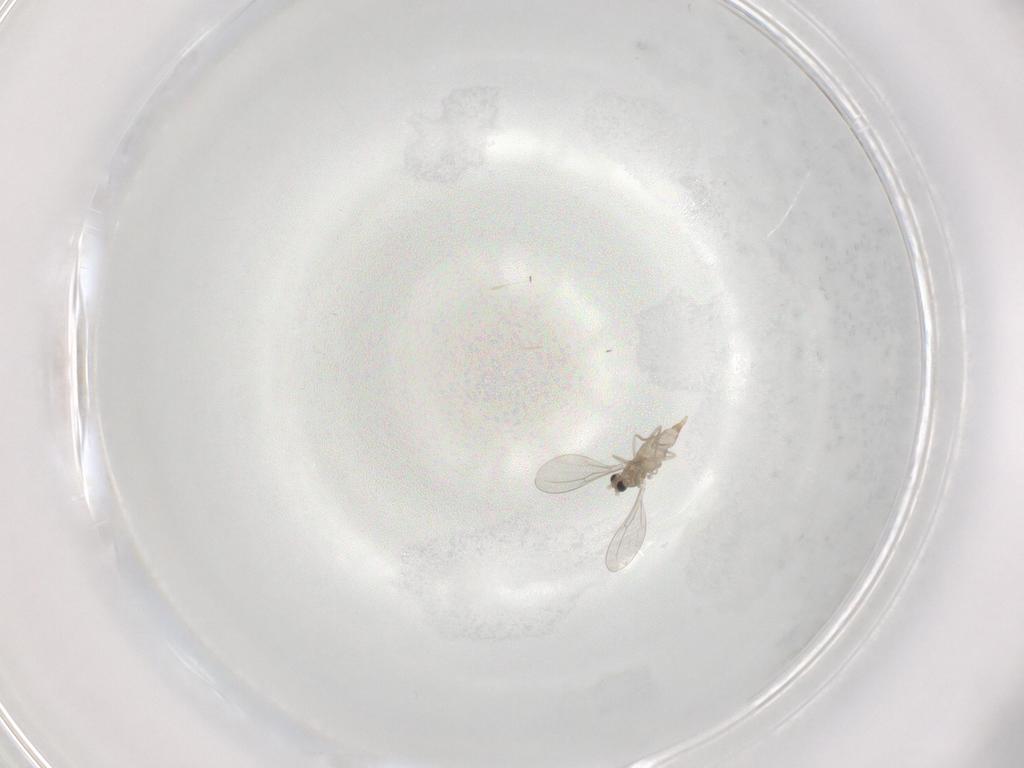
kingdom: Animalia
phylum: Arthropoda
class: Insecta
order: Diptera
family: Cecidomyiidae
